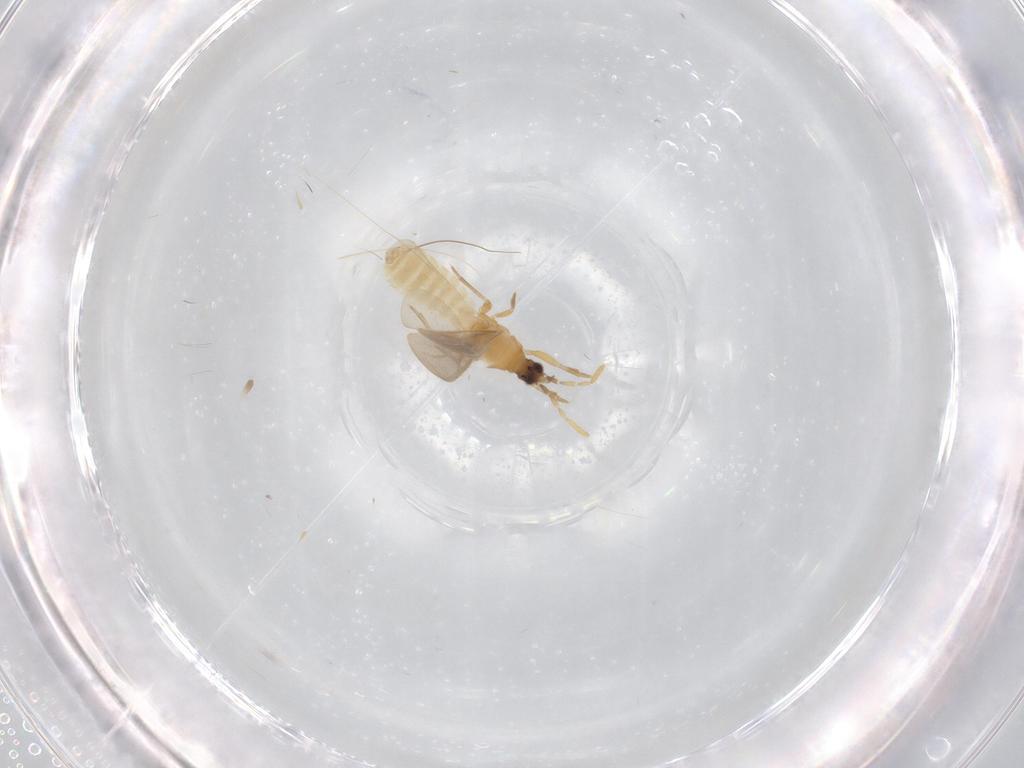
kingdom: Animalia
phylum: Arthropoda
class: Insecta
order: Hemiptera
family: Enicocephalidae
